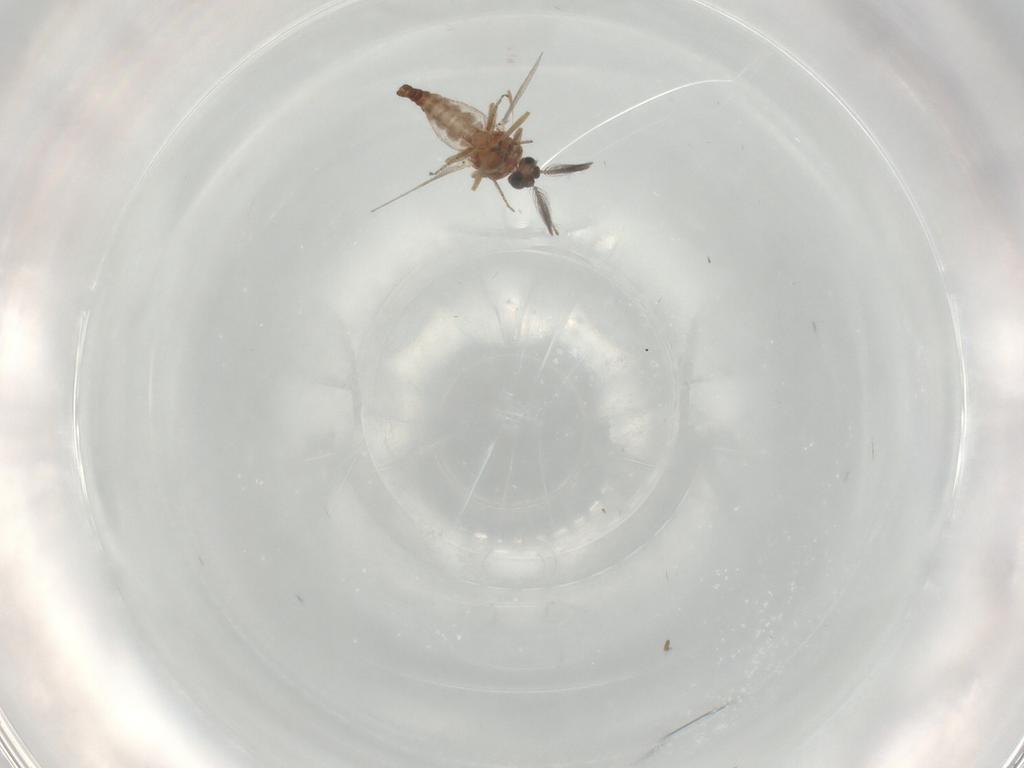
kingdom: Animalia
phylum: Arthropoda
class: Insecta
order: Diptera
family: Ceratopogonidae
